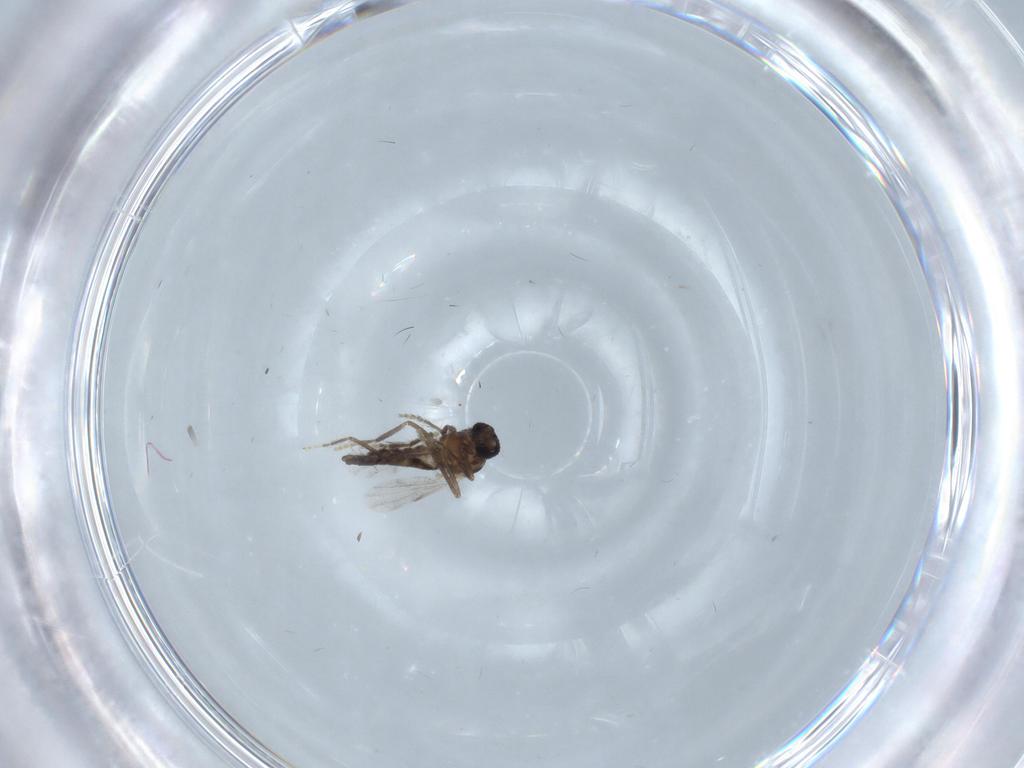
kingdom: Animalia
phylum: Arthropoda
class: Insecta
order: Diptera
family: Ceratopogonidae
